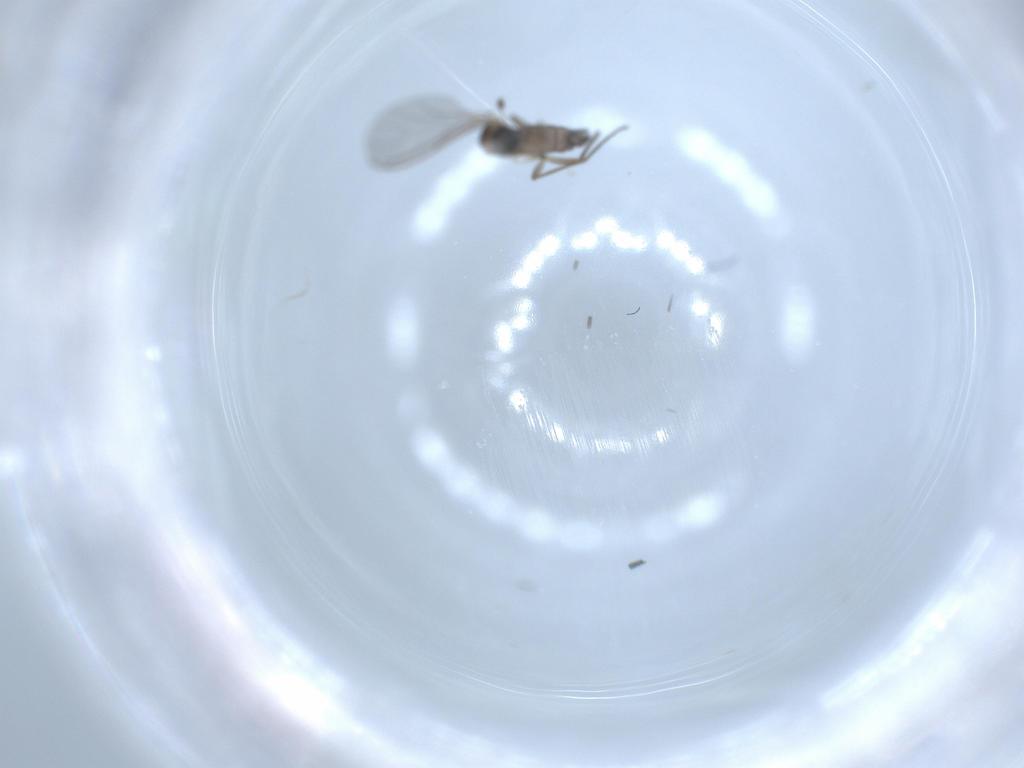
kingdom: Animalia
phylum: Arthropoda
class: Insecta
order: Diptera
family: Sciaridae
